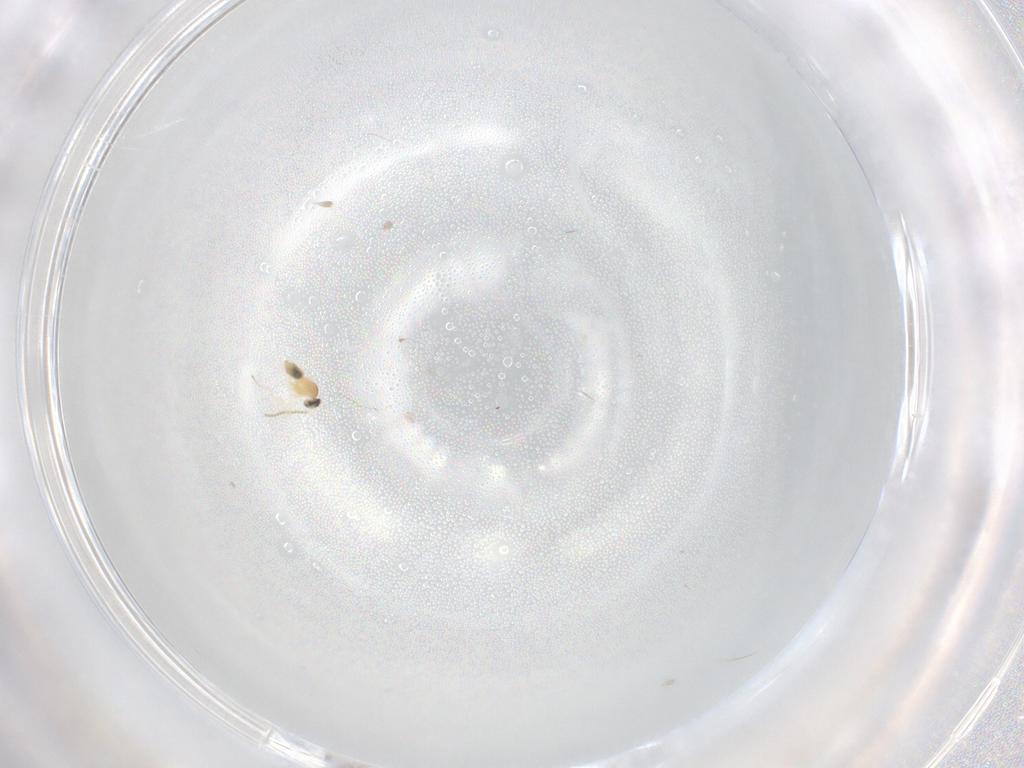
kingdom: Animalia
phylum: Arthropoda
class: Insecta
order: Diptera
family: Cecidomyiidae
